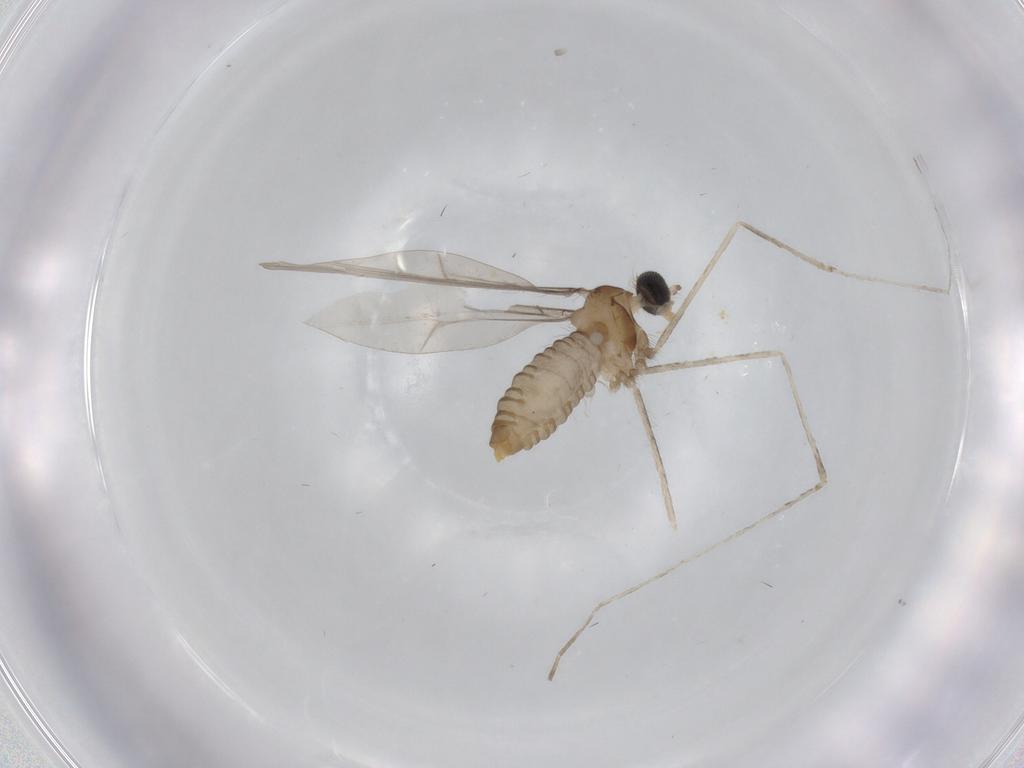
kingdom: Animalia
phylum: Arthropoda
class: Insecta
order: Diptera
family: Cecidomyiidae
